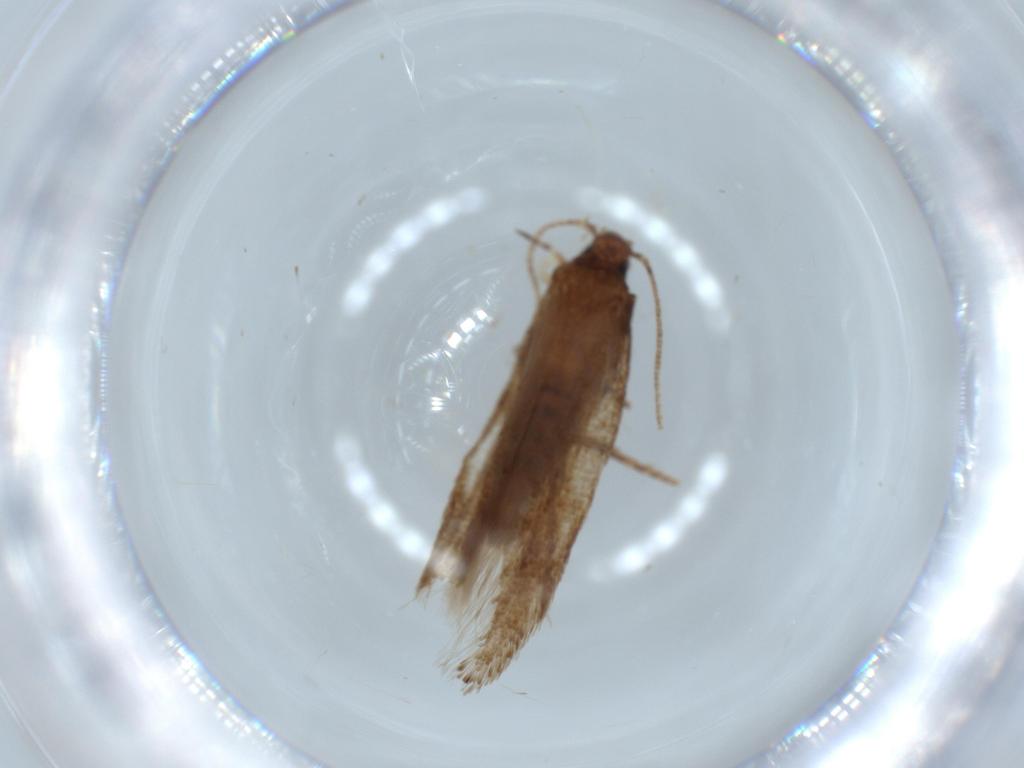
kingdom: Animalia
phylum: Arthropoda
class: Insecta
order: Lepidoptera
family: Gelechiidae
